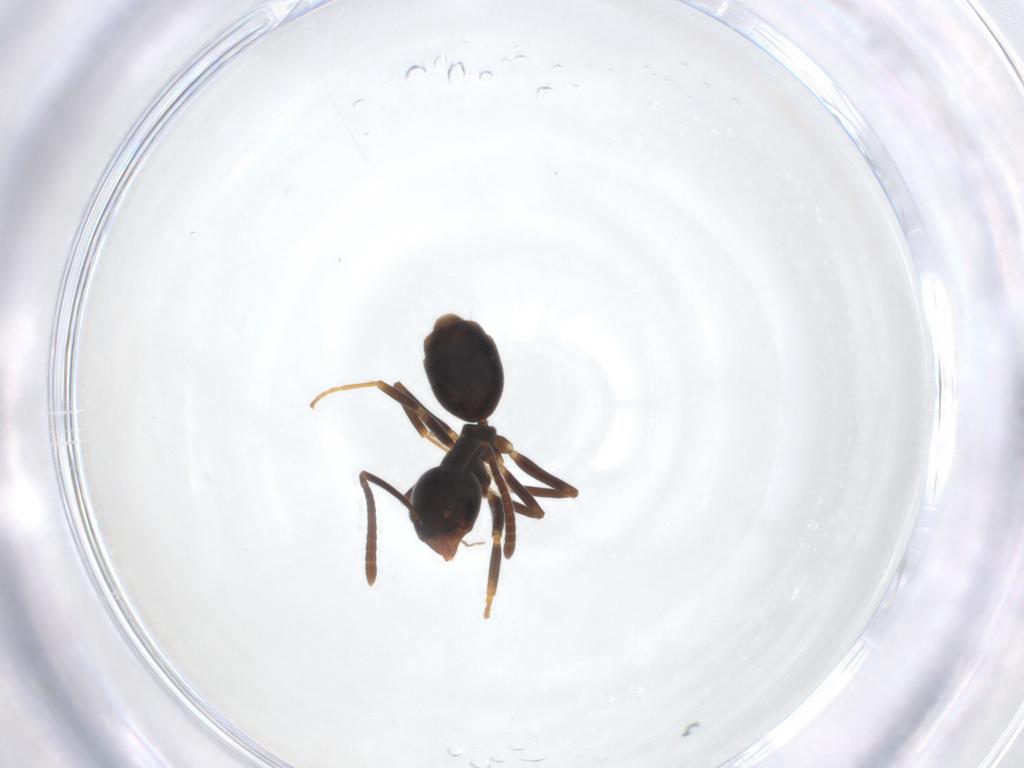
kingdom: Animalia
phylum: Arthropoda
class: Insecta
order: Hymenoptera
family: Formicidae
